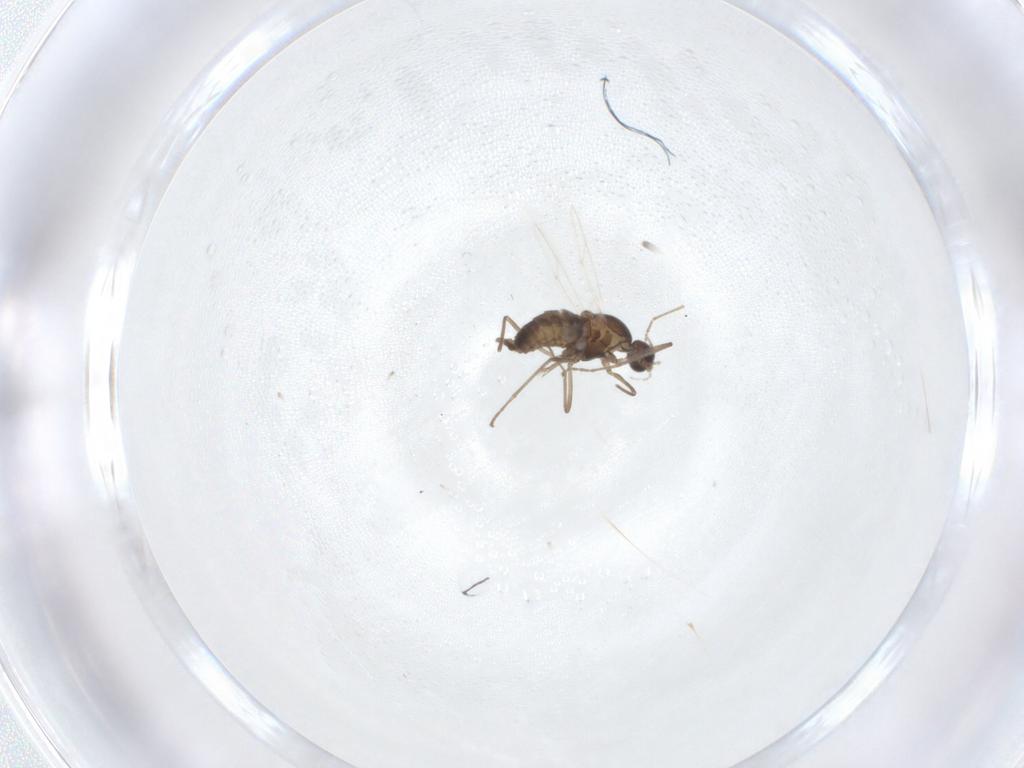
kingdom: Animalia
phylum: Arthropoda
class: Insecta
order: Diptera
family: Cecidomyiidae
